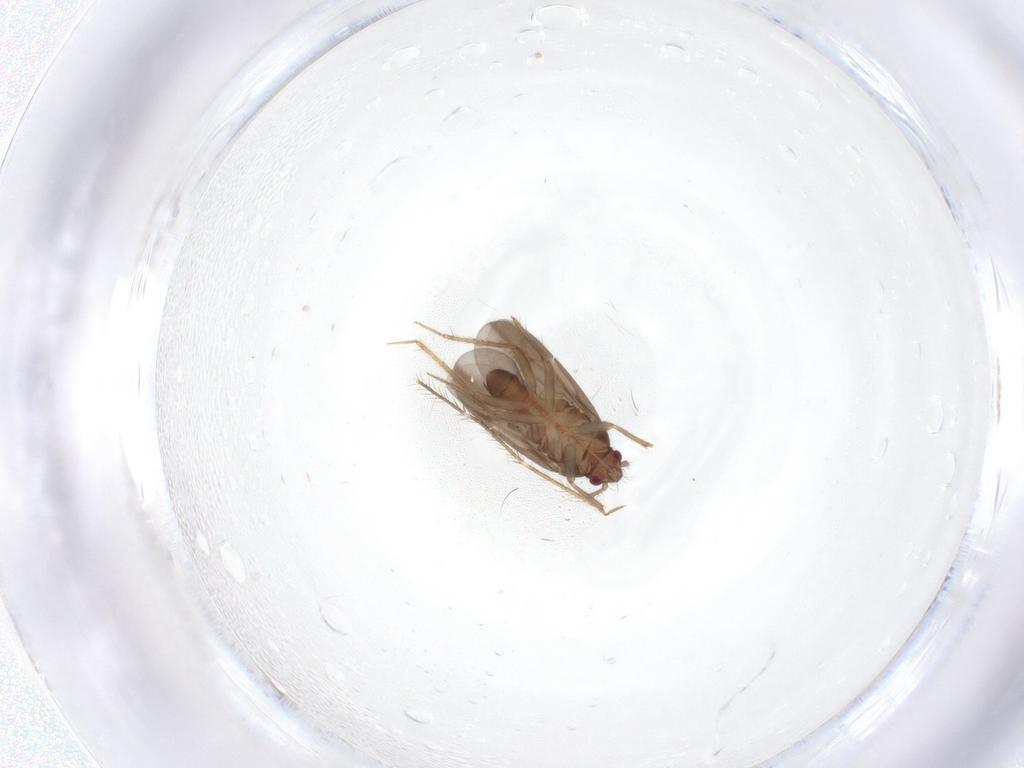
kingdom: Animalia
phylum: Arthropoda
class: Insecta
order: Hemiptera
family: Ceratocombidae
